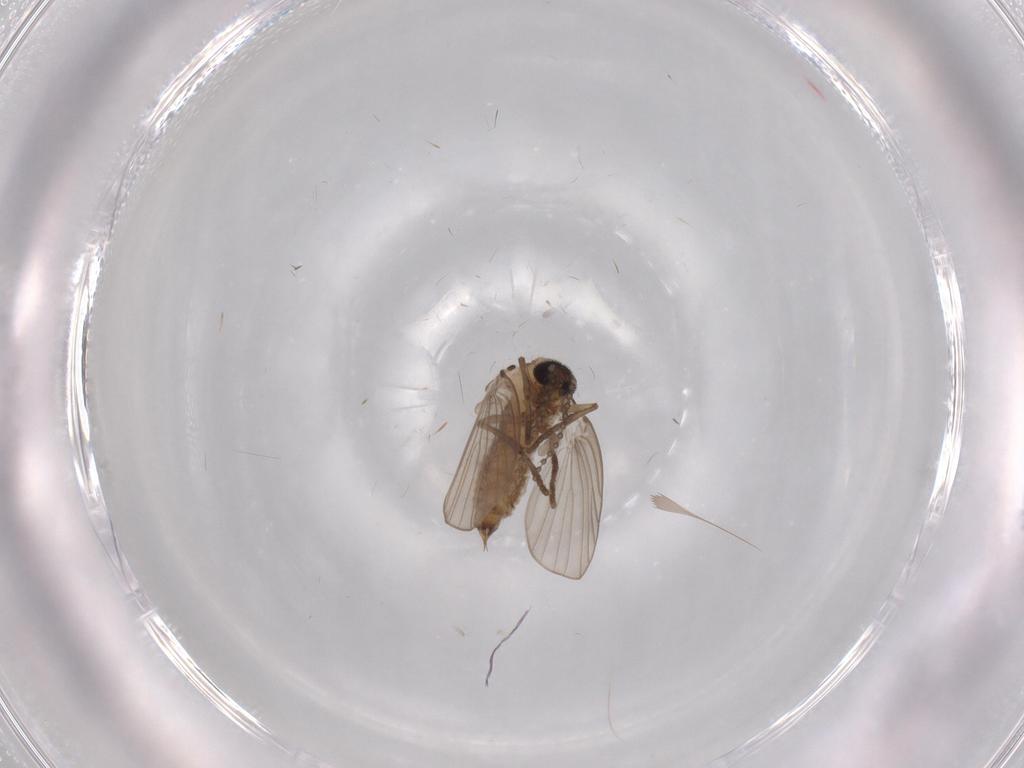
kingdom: Animalia
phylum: Arthropoda
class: Insecta
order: Diptera
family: Psychodidae
